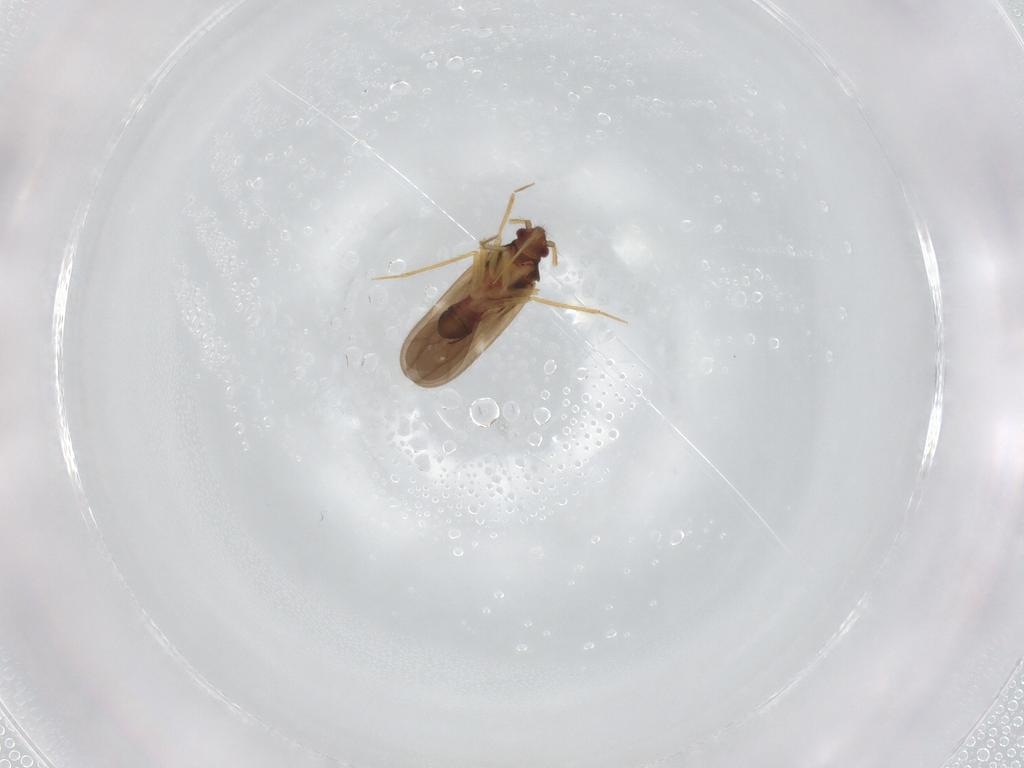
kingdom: Animalia
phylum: Arthropoda
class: Insecta
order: Hemiptera
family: Ceratocombidae
